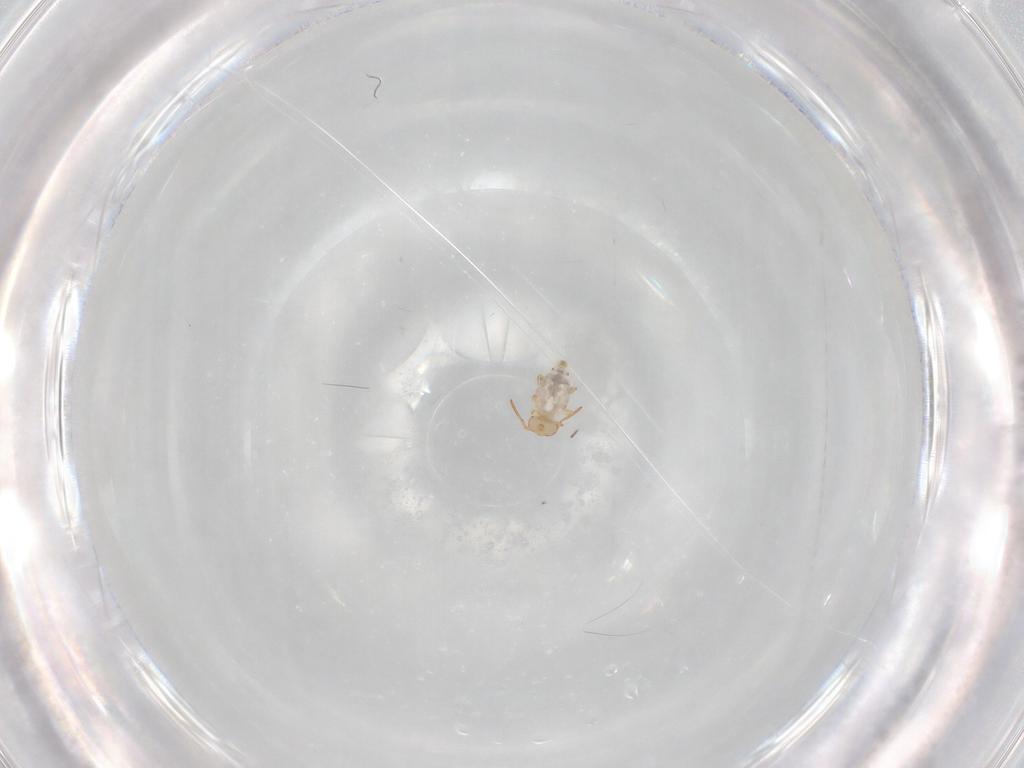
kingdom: Animalia
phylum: Arthropoda
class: Collembola
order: Symphypleona
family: Bourletiellidae
